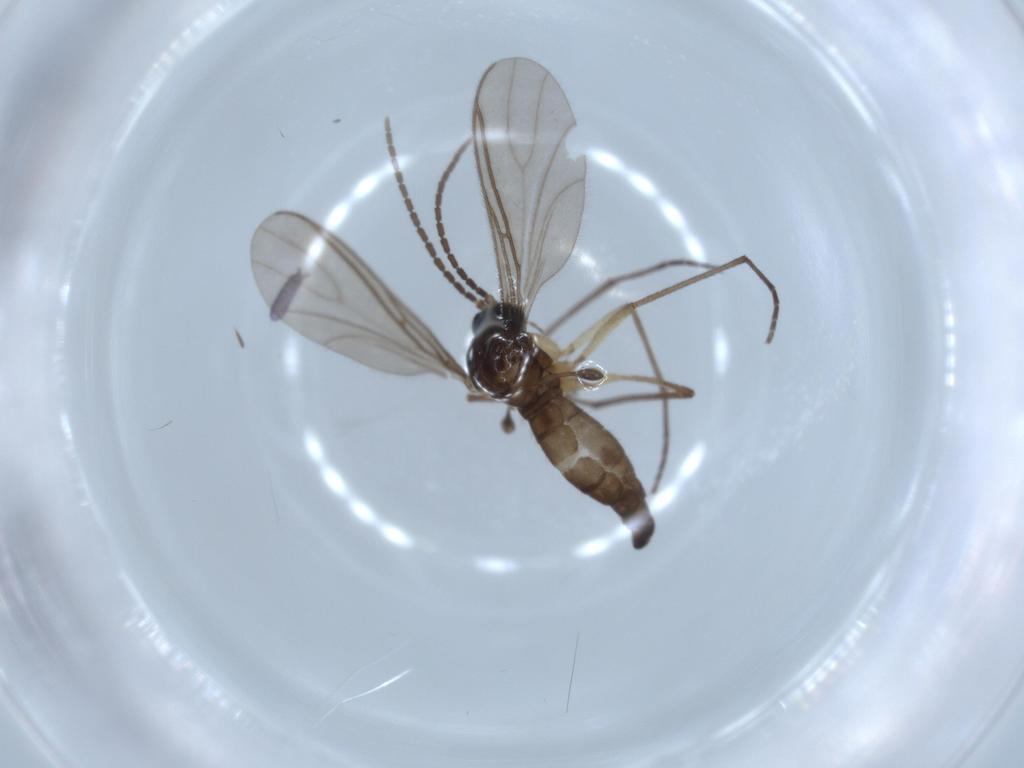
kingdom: Animalia
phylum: Arthropoda
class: Insecta
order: Diptera
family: Sciaridae
